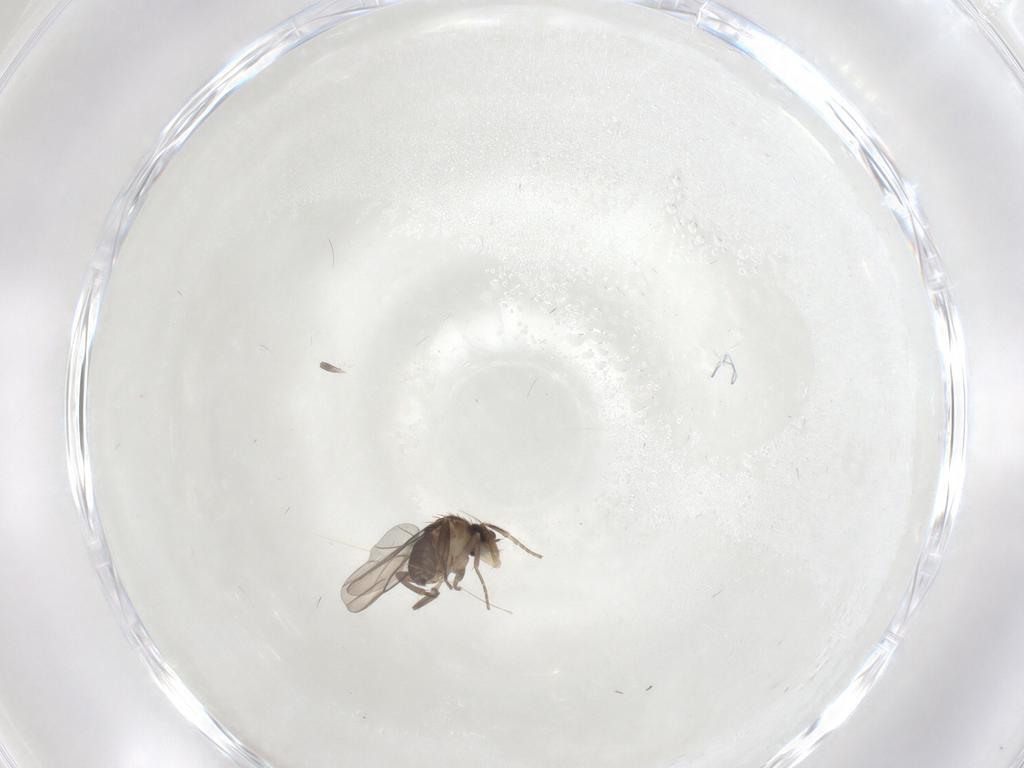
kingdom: Animalia
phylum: Arthropoda
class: Insecta
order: Diptera
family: Phoridae
